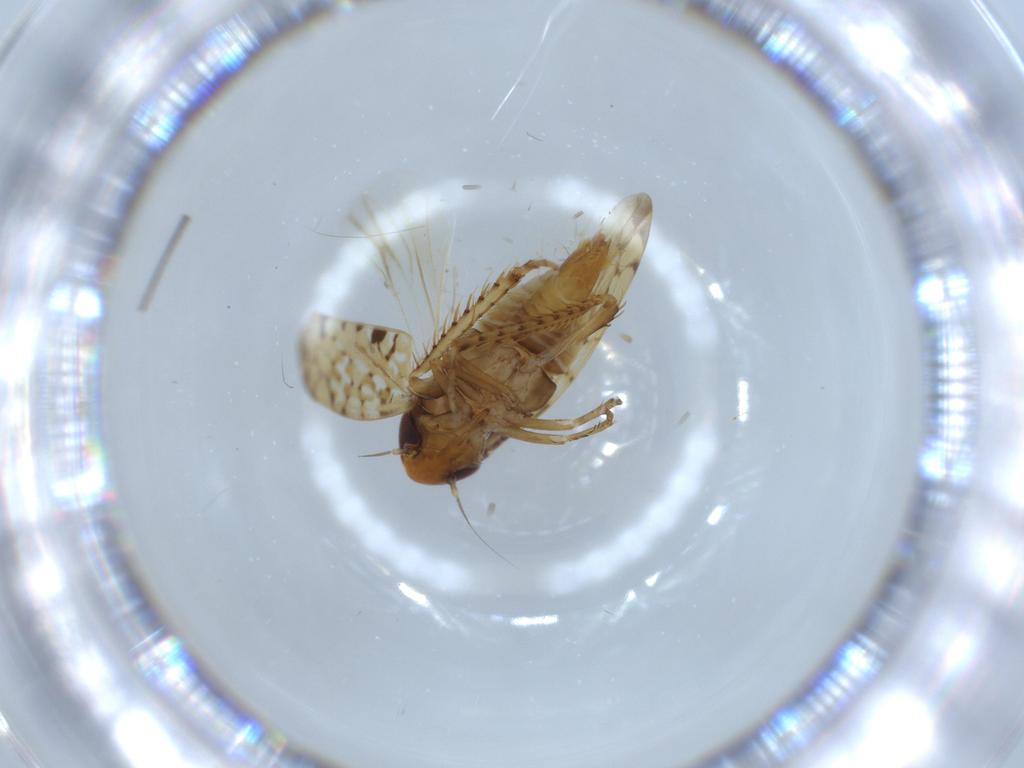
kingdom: Animalia
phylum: Arthropoda
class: Insecta
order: Hemiptera
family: Cicadellidae
